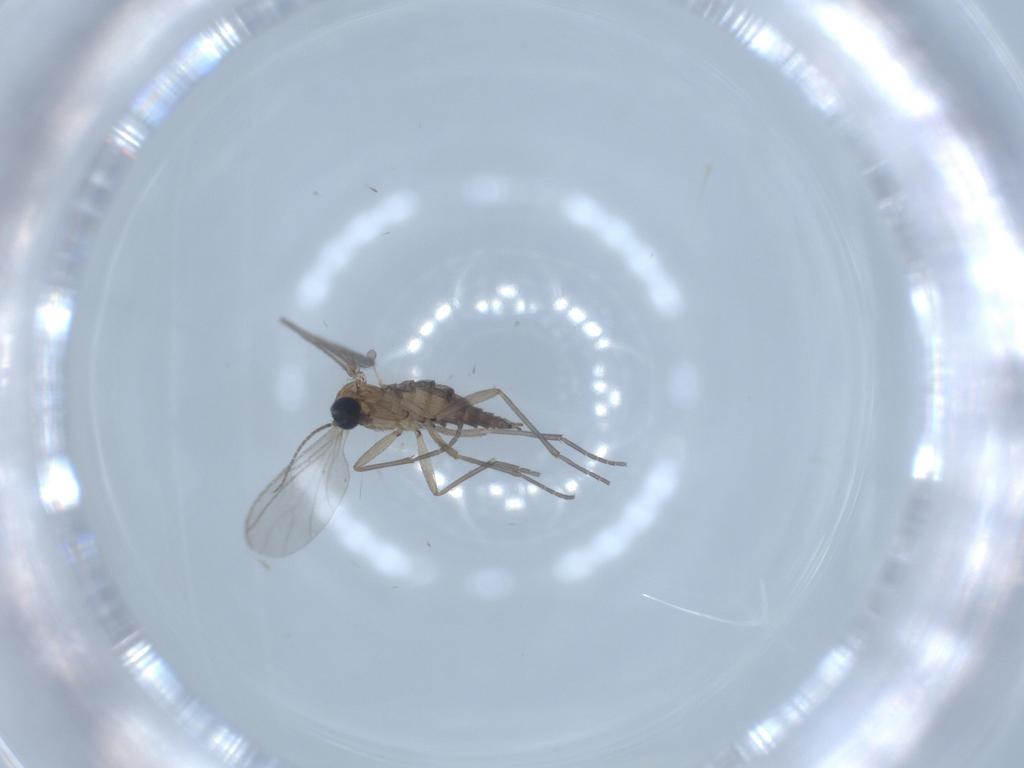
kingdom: Animalia
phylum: Arthropoda
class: Insecta
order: Diptera
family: Sciaridae
